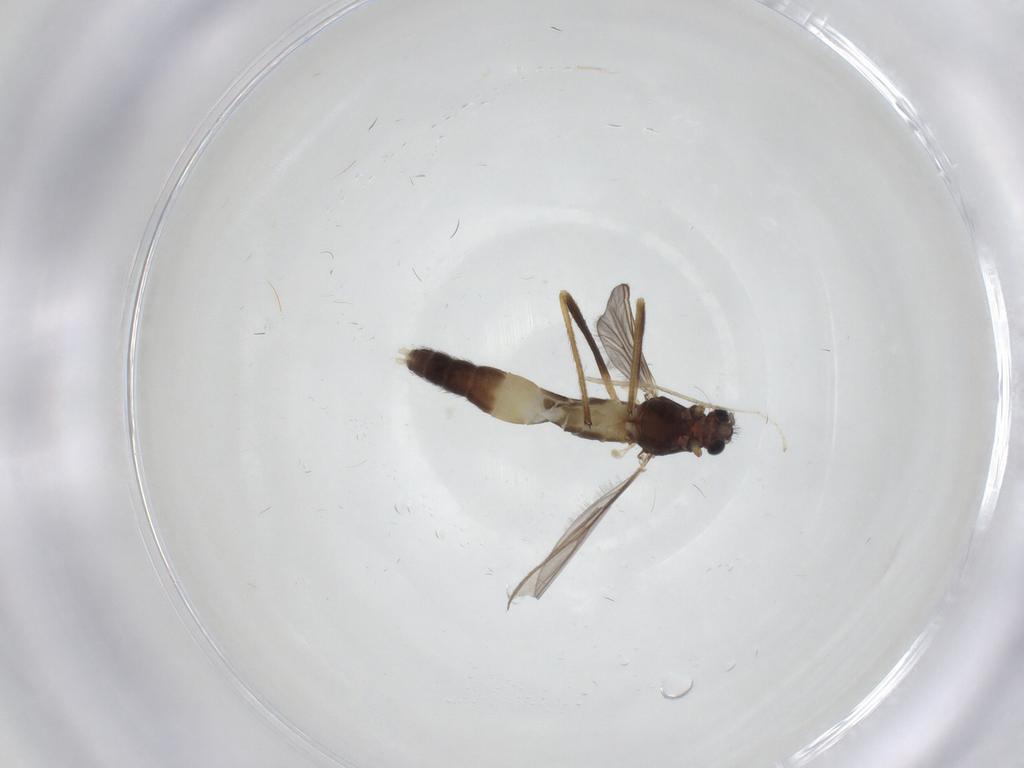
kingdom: Animalia
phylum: Arthropoda
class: Insecta
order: Diptera
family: Chironomidae
